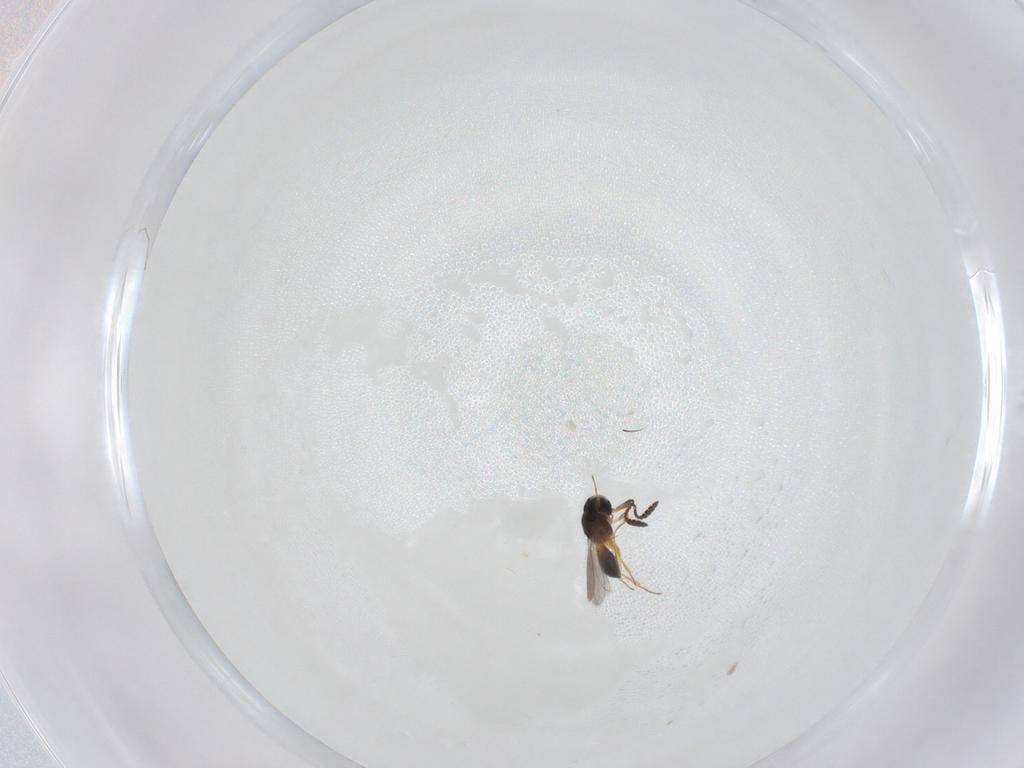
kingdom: Animalia
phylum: Arthropoda
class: Insecta
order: Hymenoptera
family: Scelionidae
